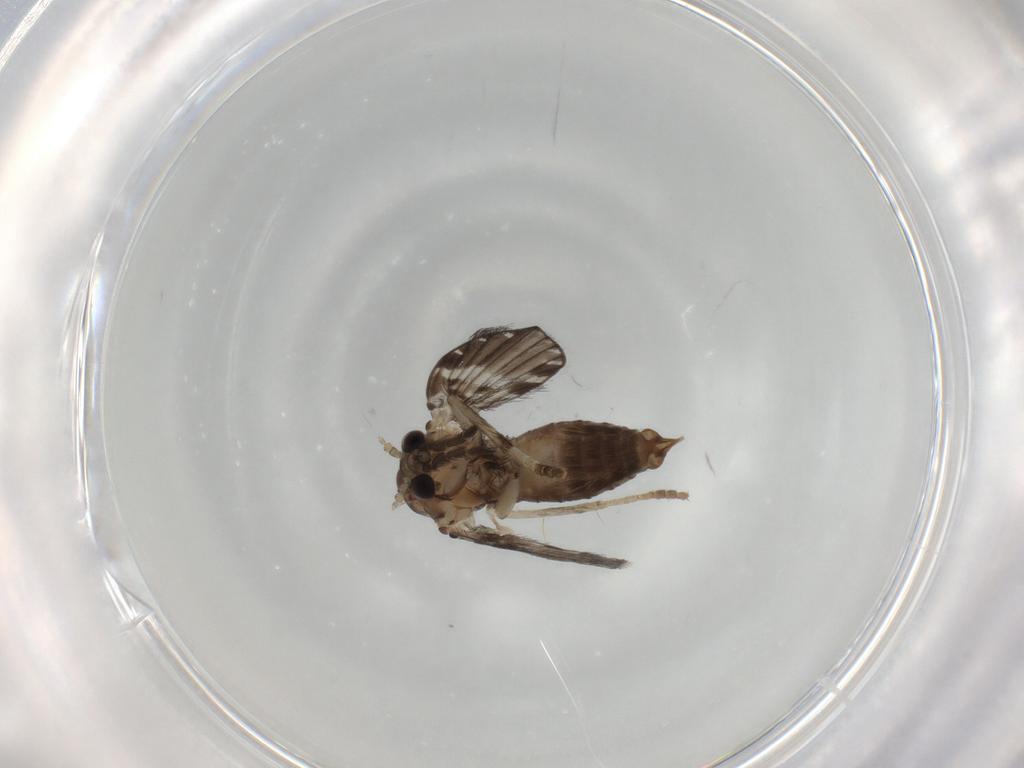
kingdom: Animalia
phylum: Arthropoda
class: Insecta
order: Diptera
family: Psychodidae
